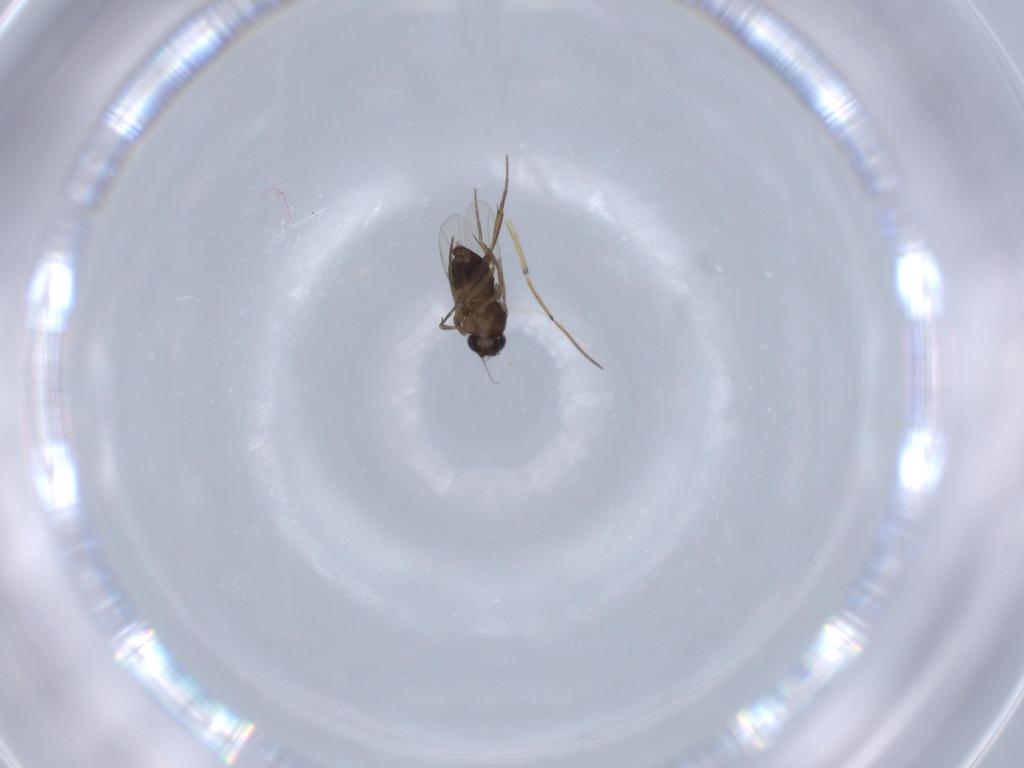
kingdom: Animalia
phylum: Arthropoda
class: Insecta
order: Diptera
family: Phoridae
